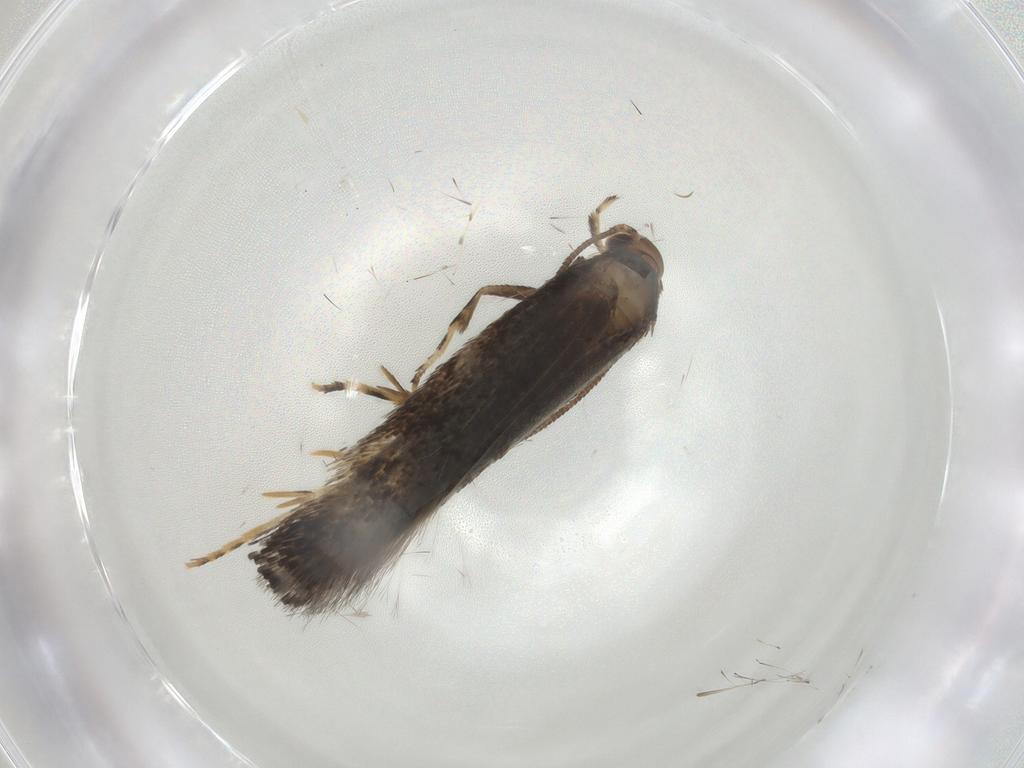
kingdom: Animalia
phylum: Arthropoda
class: Insecta
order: Lepidoptera
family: Elachistidae
